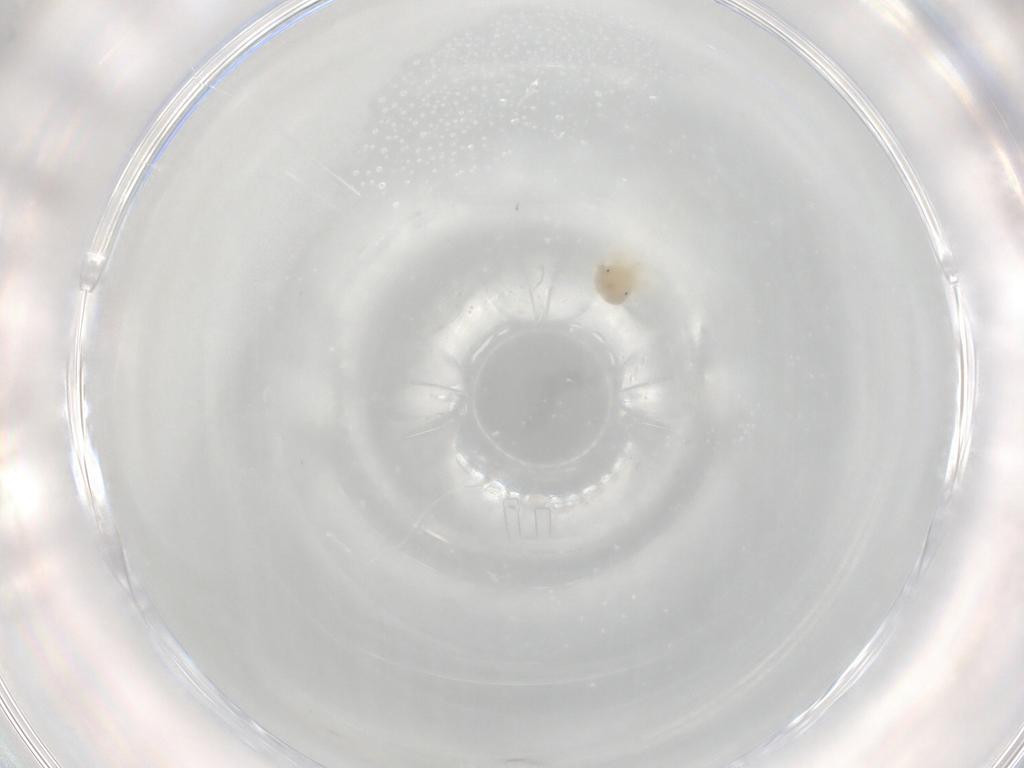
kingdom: Animalia
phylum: Arthropoda
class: Arachnida
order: Trombidiformes
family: Anystidae
